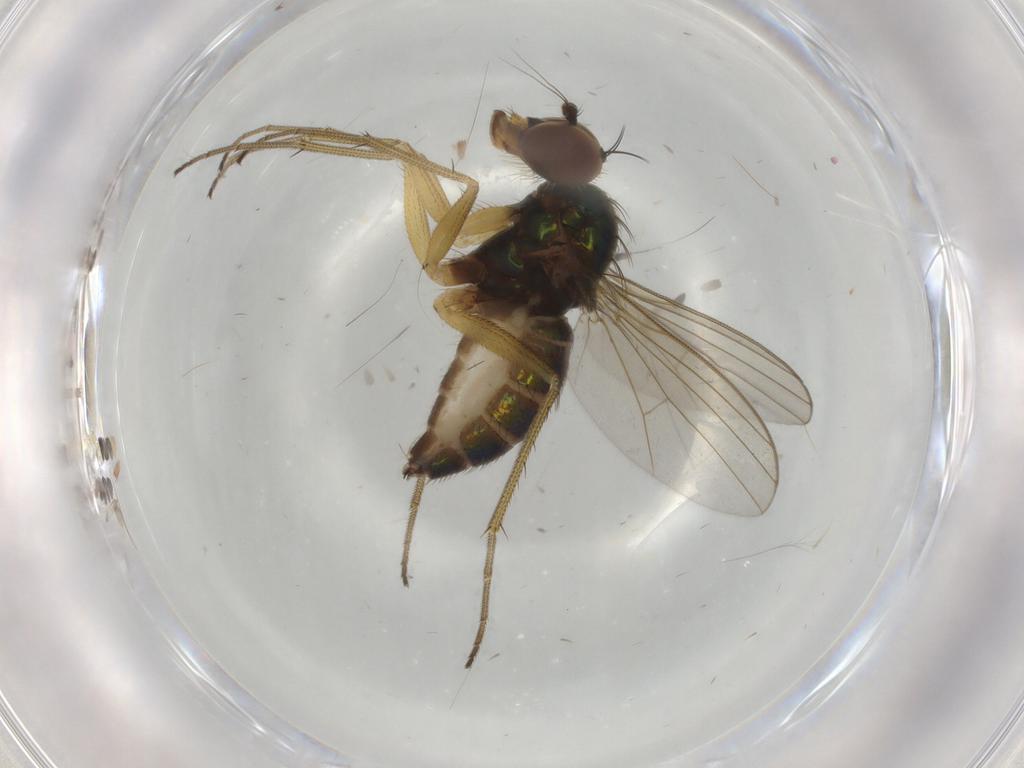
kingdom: Animalia
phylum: Arthropoda
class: Insecta
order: Diptera
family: Dolichopodidae
